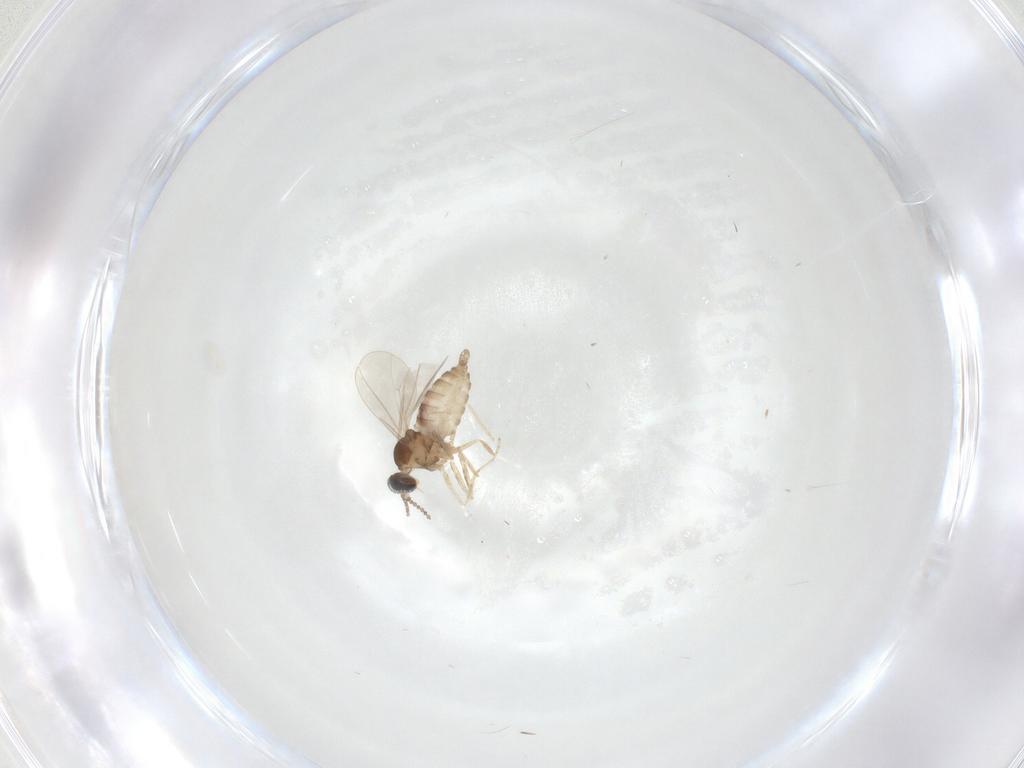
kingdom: Animalia
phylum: Arthropoda
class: Insecta
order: Diptera
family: Cecidomyiidae
